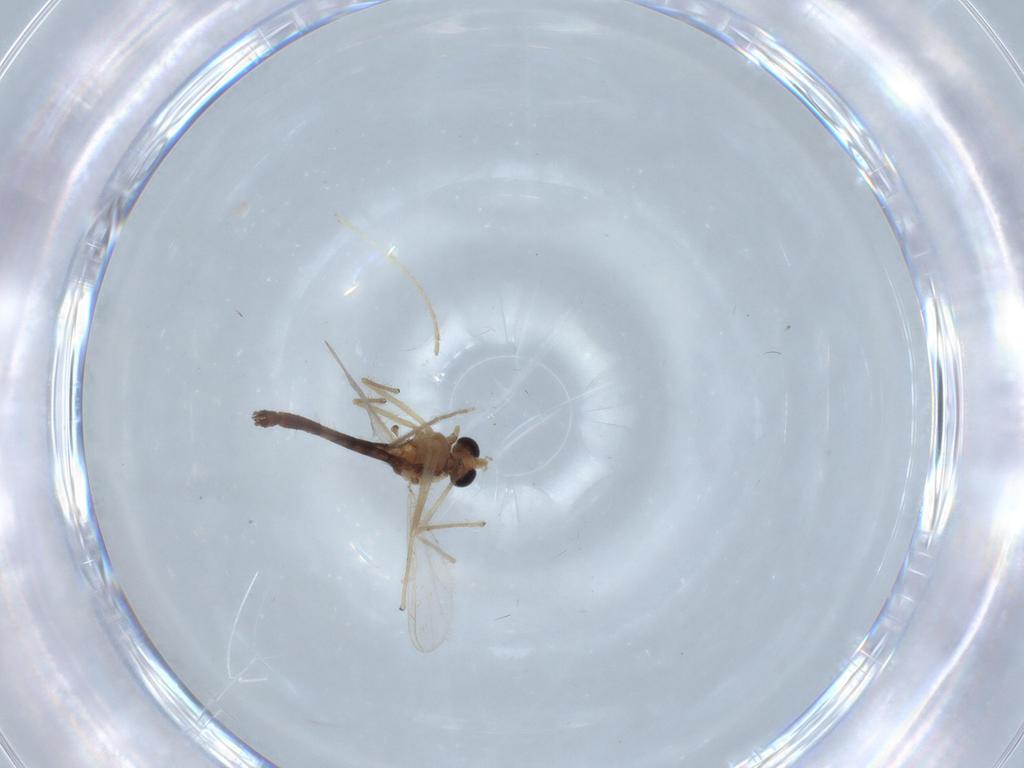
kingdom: Animalia
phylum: Arthropoda
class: Insecta
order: Diptera
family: Chironomidae
